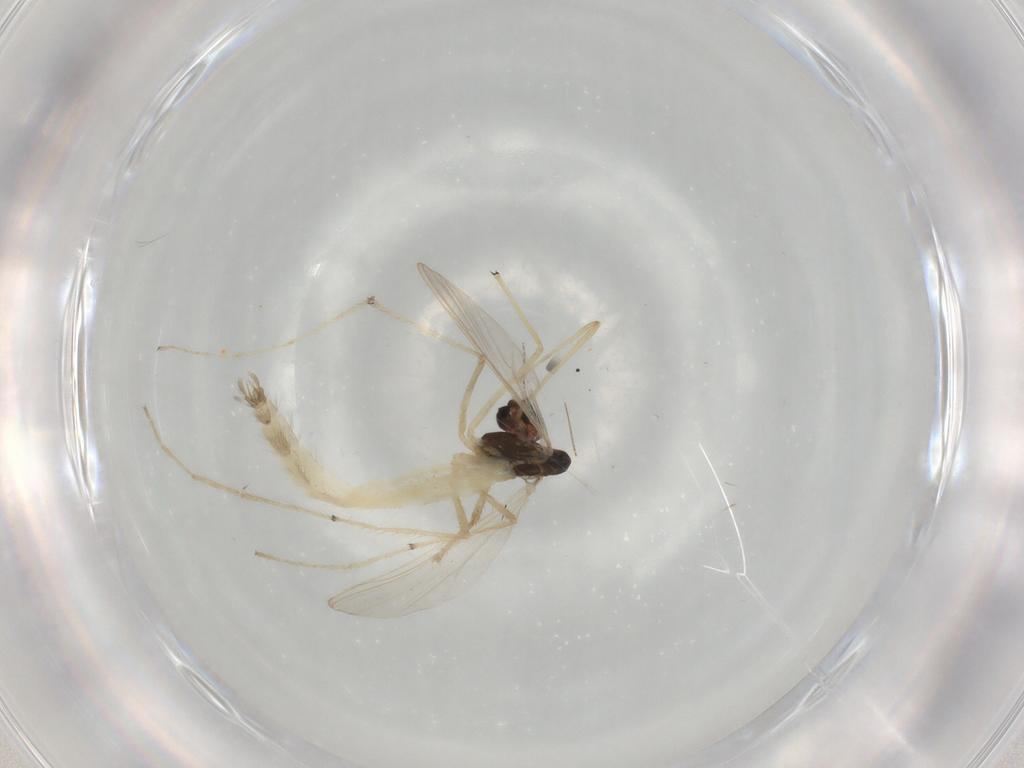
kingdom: Animalia
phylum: Arthropoda
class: Insecta
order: Diptera
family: Chironomidae
